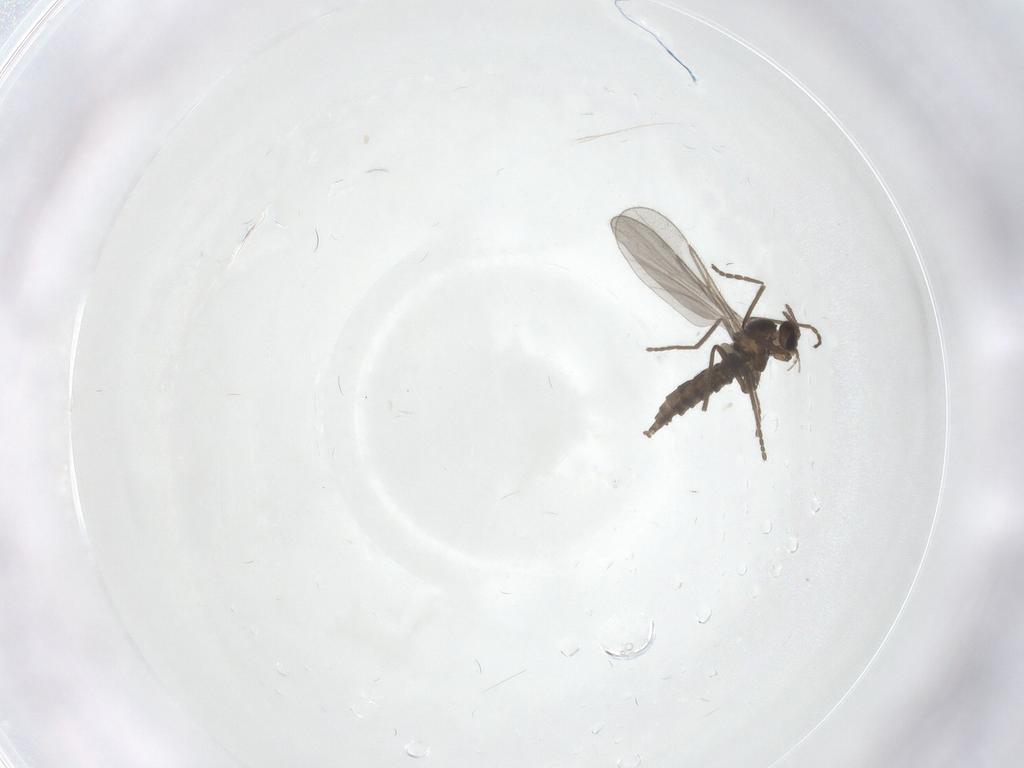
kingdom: Animalia
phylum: Arthropoda
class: Insecta
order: Diptera
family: Cecidomyiidae
